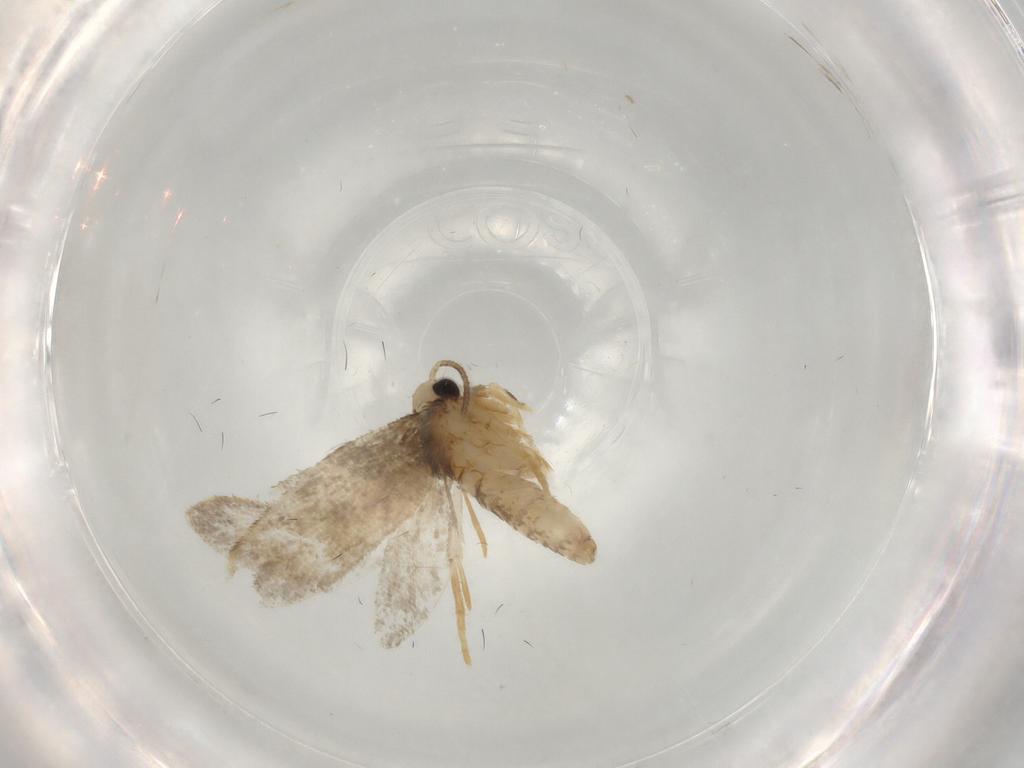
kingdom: Animalia
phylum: Arthropoda
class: Insecta
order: Lepidoptera
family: Psychidae
